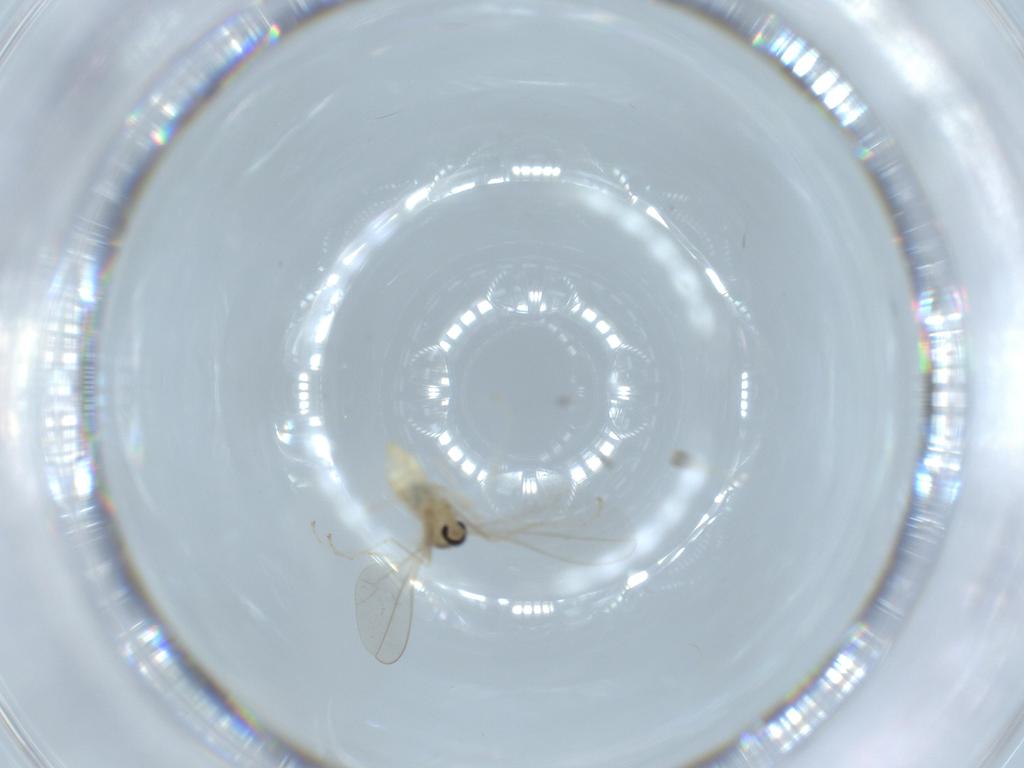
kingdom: Animalia
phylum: Arthropoda
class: Insecta
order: Diptera
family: Cecidomyiidae
